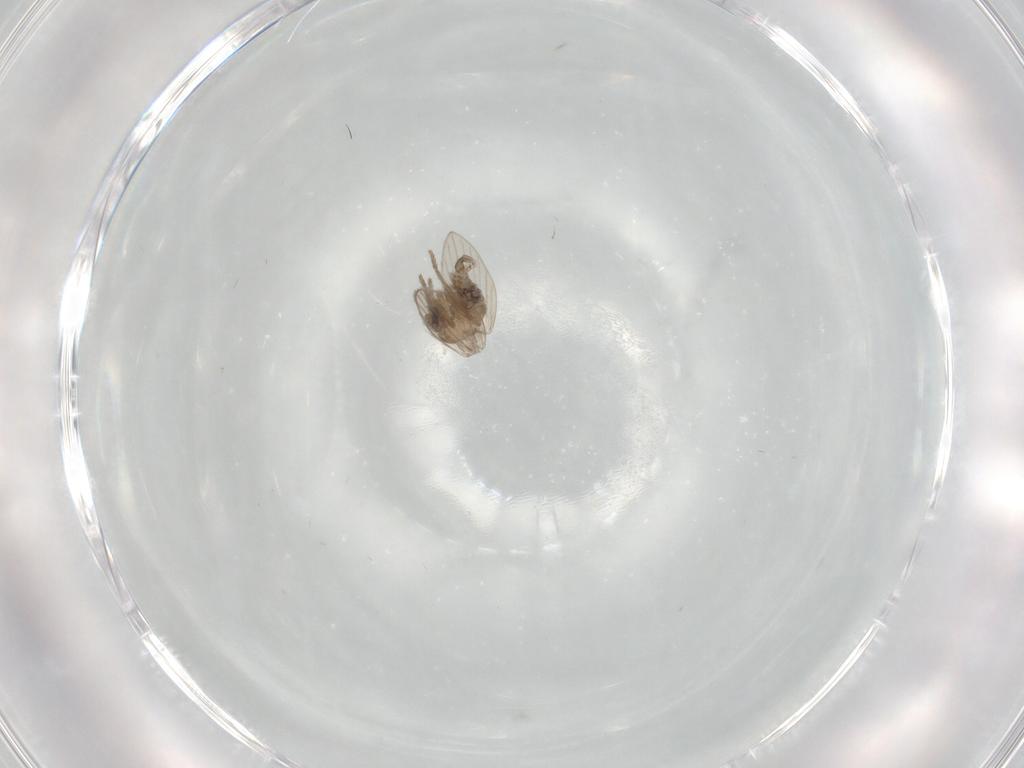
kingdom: Animalia
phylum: Arthropoda
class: Insecta
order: Diptera
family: Psychodidae
